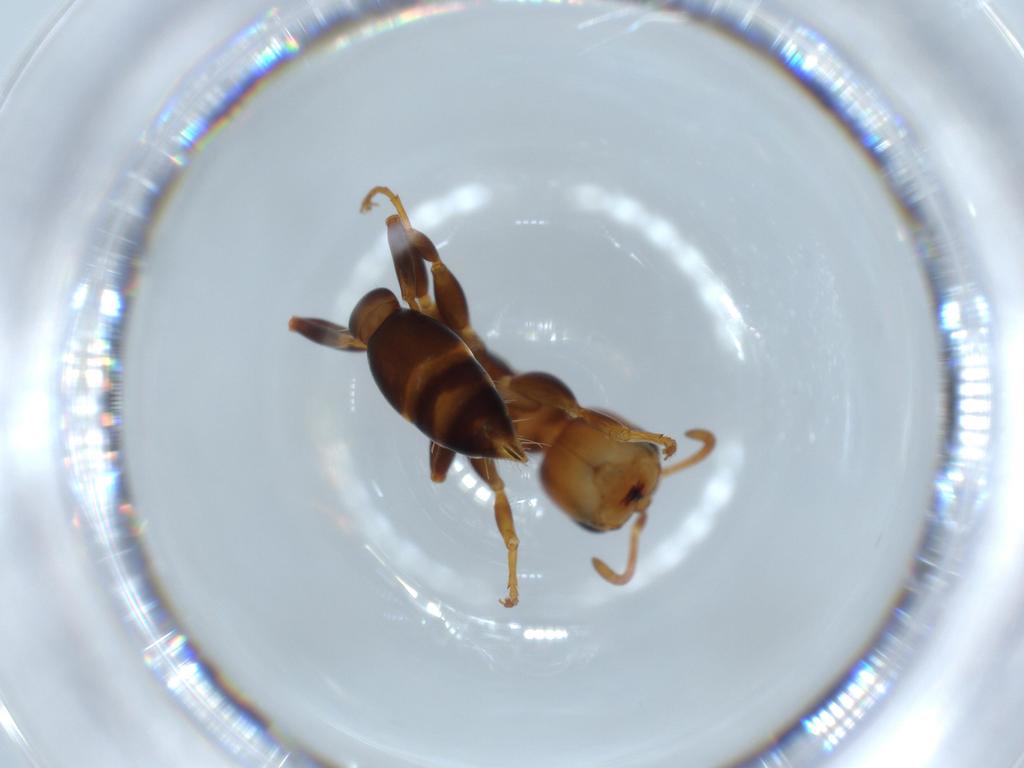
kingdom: Animalia
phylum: Arthropoda
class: Insecta
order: Hymenoptera
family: Formicidae
